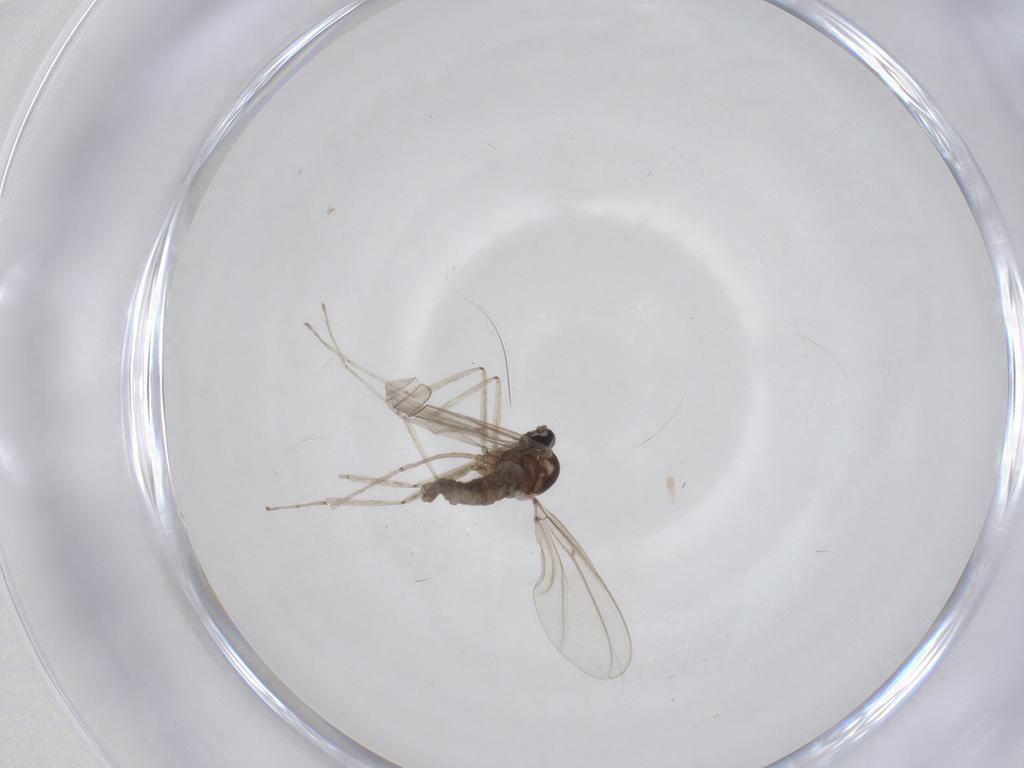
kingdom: Animalia
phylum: Arthropoda
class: Insecta
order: Diptera
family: Cecidomyiidae
